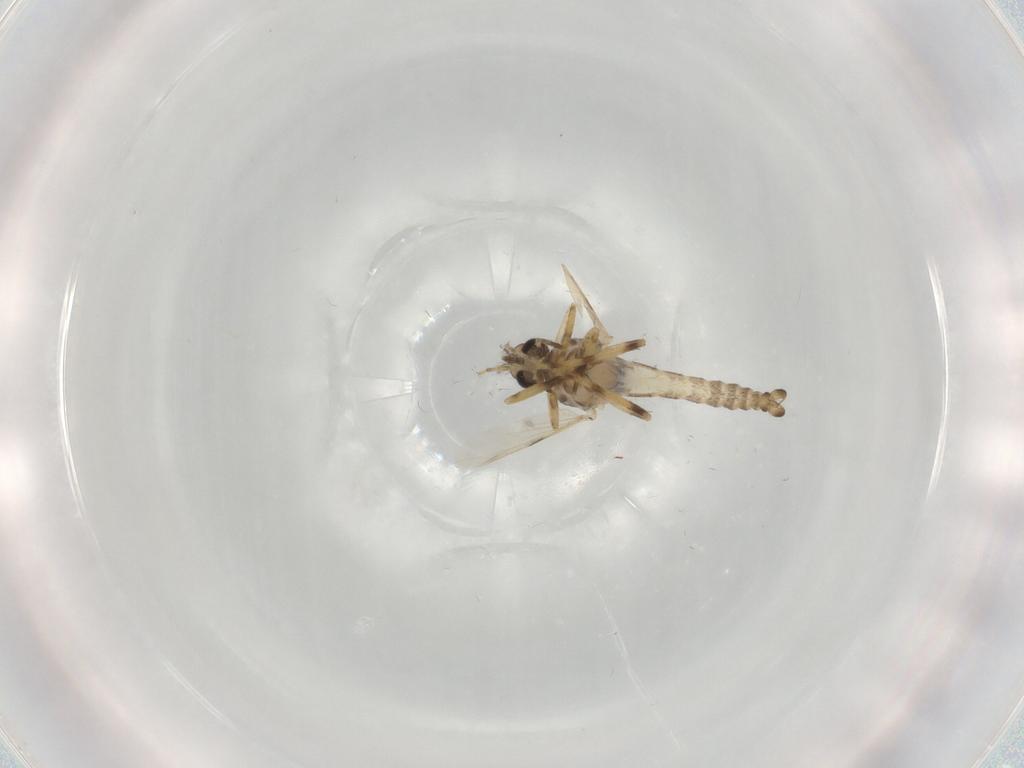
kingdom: Animalia
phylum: Arthropoda
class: Insecta
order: Diptera
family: Ceratopogonidae
